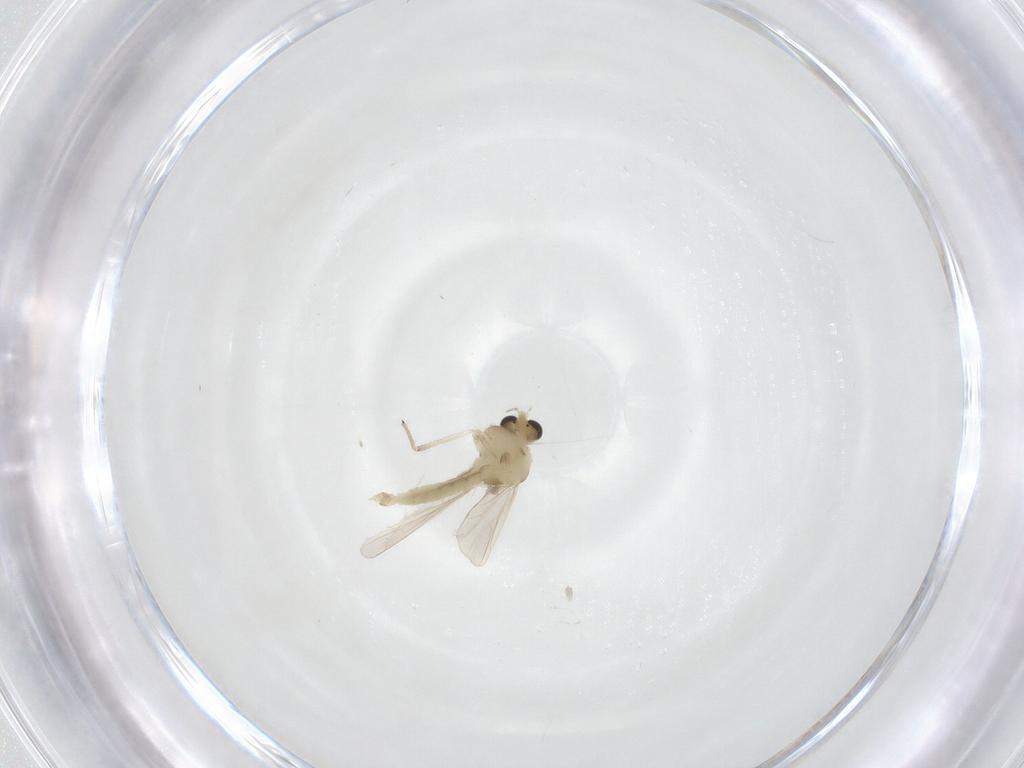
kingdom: Animalia
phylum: Arthropoda
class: Insecta
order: Diptera
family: Chironomidae
